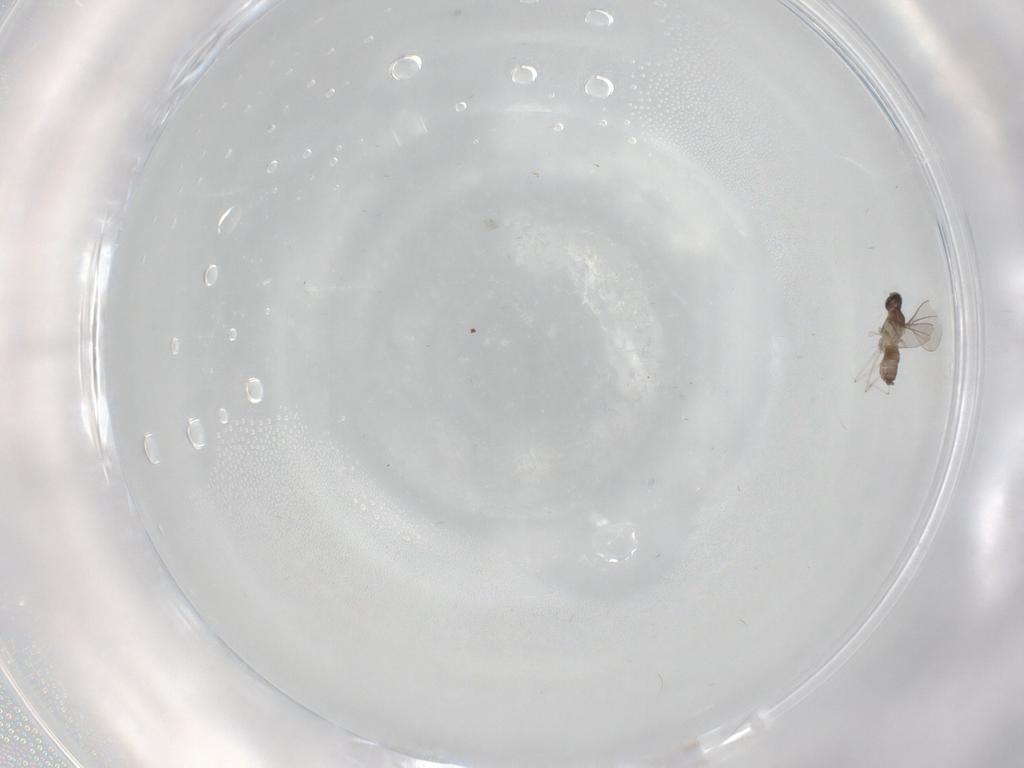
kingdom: Animalia
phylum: Arthropoda
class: Insecta
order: Diptera
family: Cecidomyiidae
